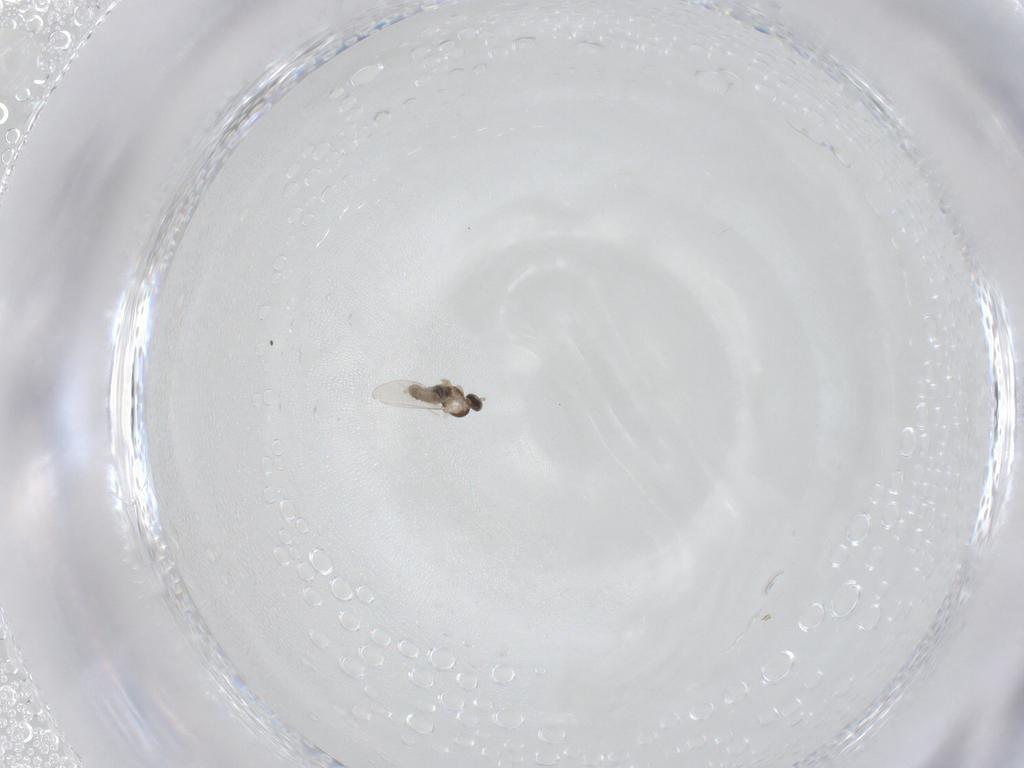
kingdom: Animalia
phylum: Arthropoda
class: Insecta
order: Diptera
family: Cecidomyiidae
